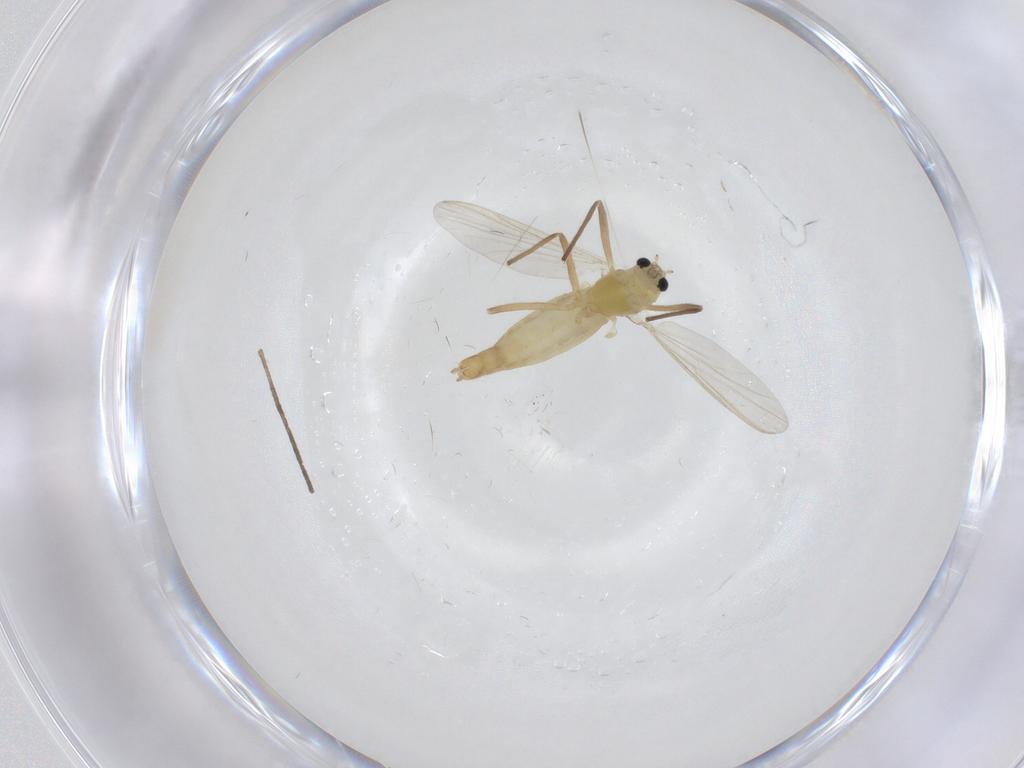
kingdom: Animalia
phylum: Arthropoda
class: Insecta
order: Diptera
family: Chironomidae
